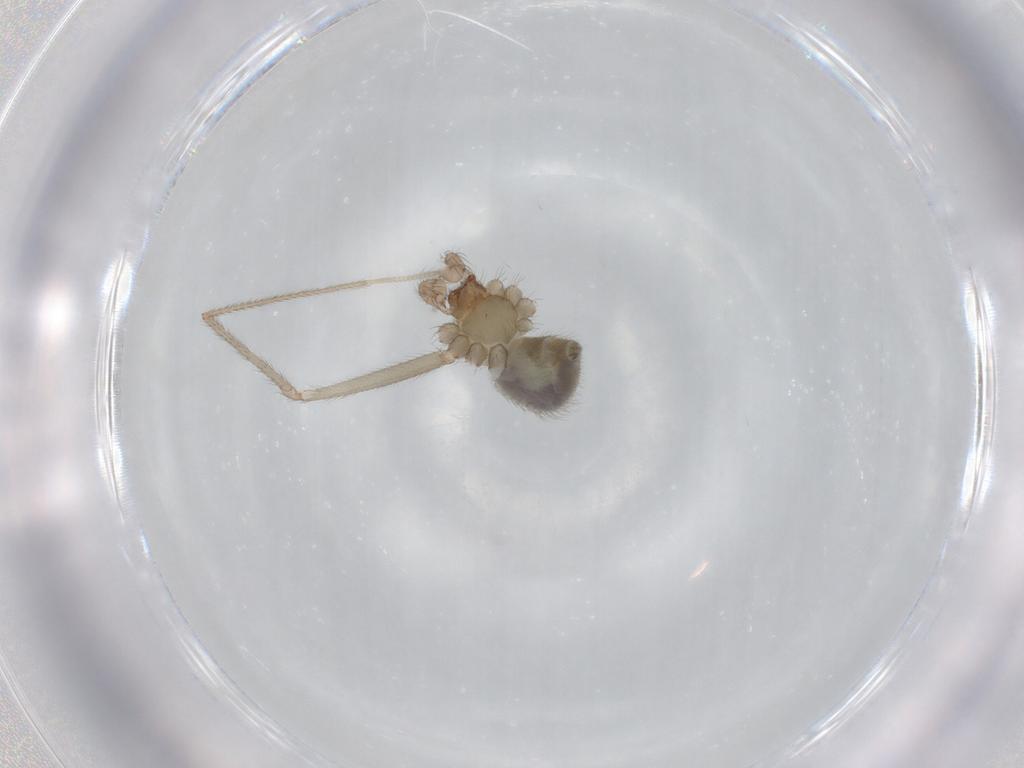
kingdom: Animalia
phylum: Arthropoda
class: Arachnida
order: Araneae
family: Pholcidae
